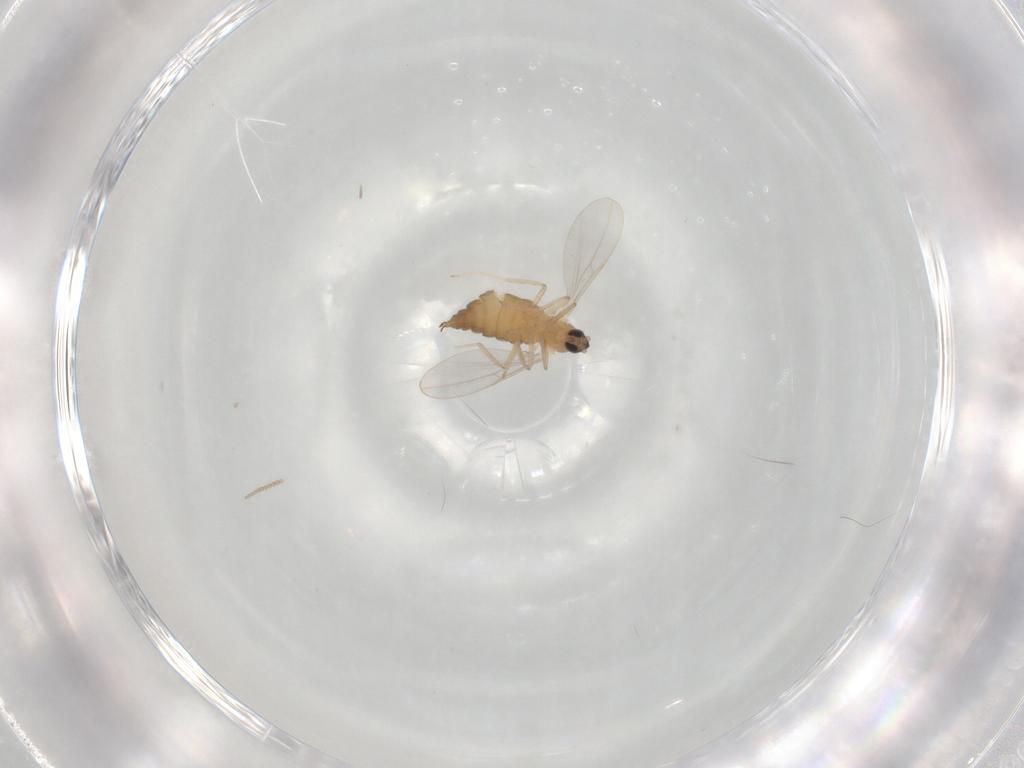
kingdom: Animalia
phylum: Arthropoda
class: Insecta
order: Diptera
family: Cecidomyiidae
